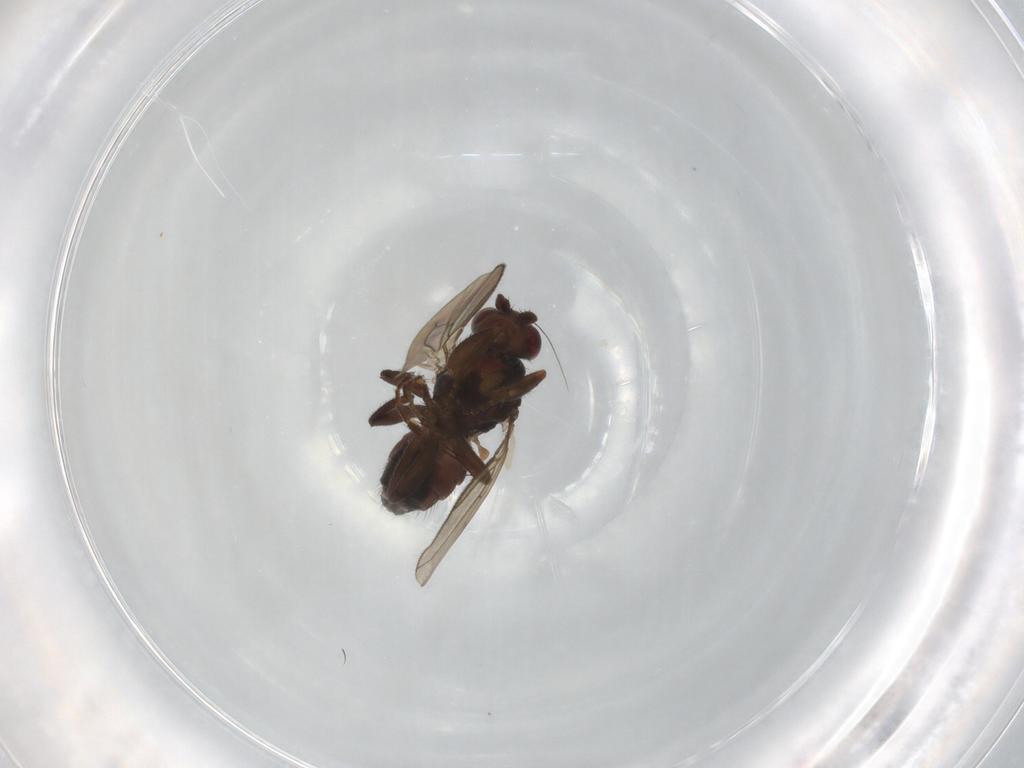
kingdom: Animalia
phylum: Arthropoda
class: Insecta
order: Diptera
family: Sphaeroceridae
